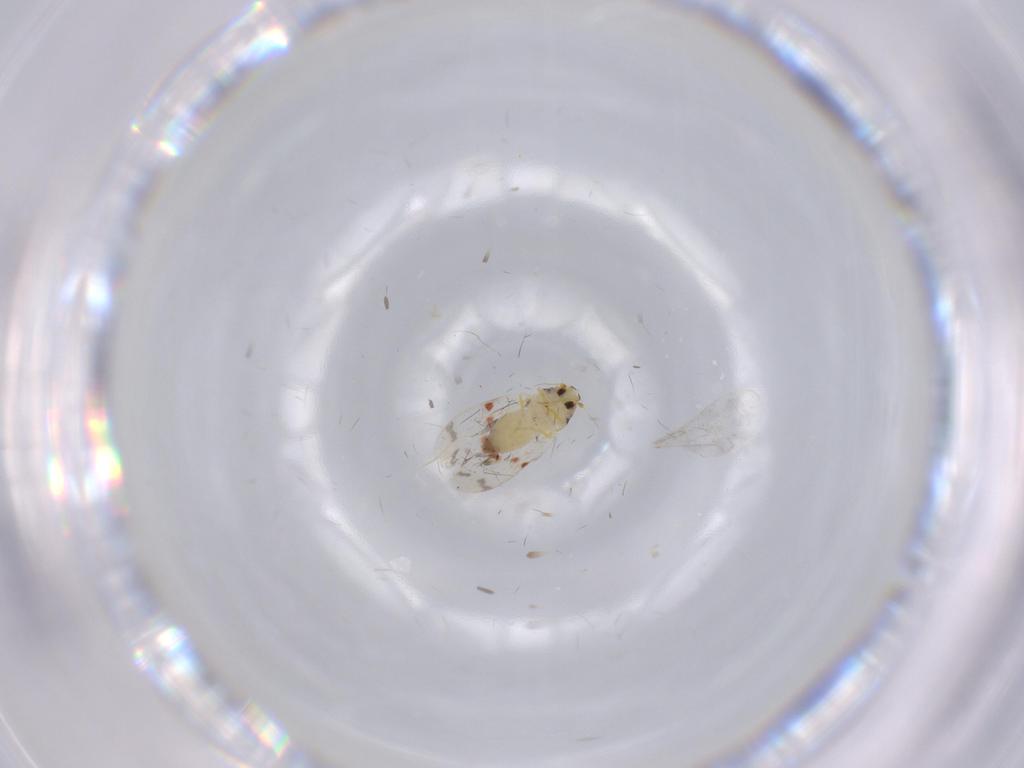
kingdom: Animalia
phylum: Arthropoda
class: Insecta
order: Hemiptera
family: Aleyrodidae
